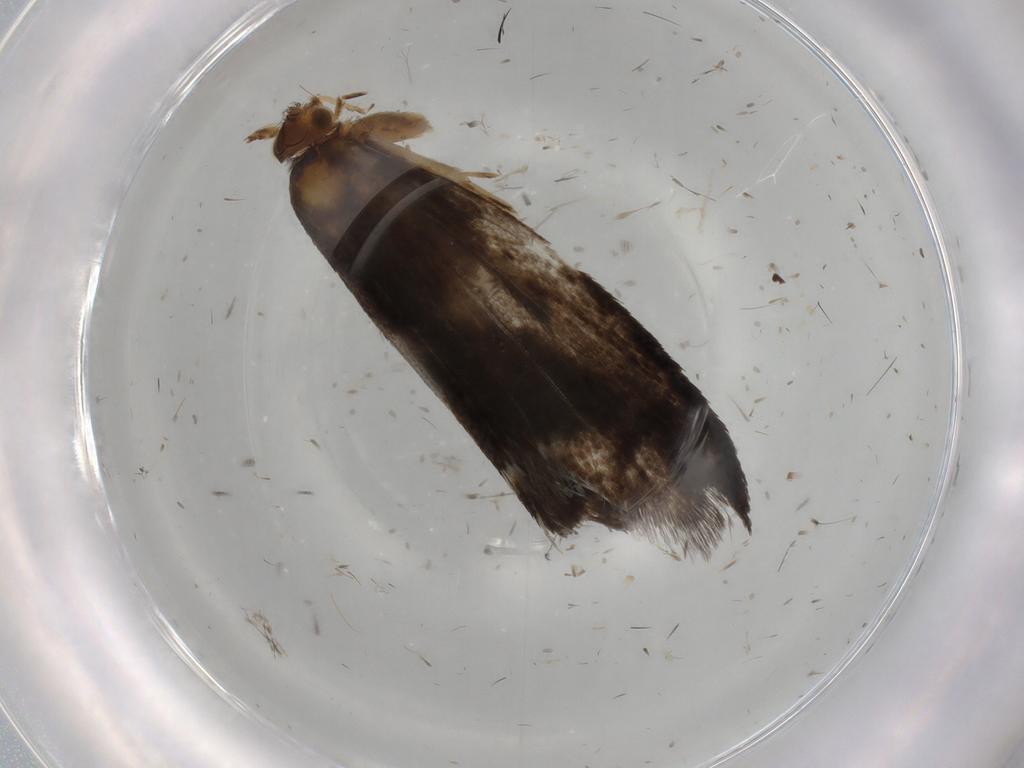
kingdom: Animalia
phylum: Arthropoda
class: Insecta
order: Lepidoptera
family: Tineidae
